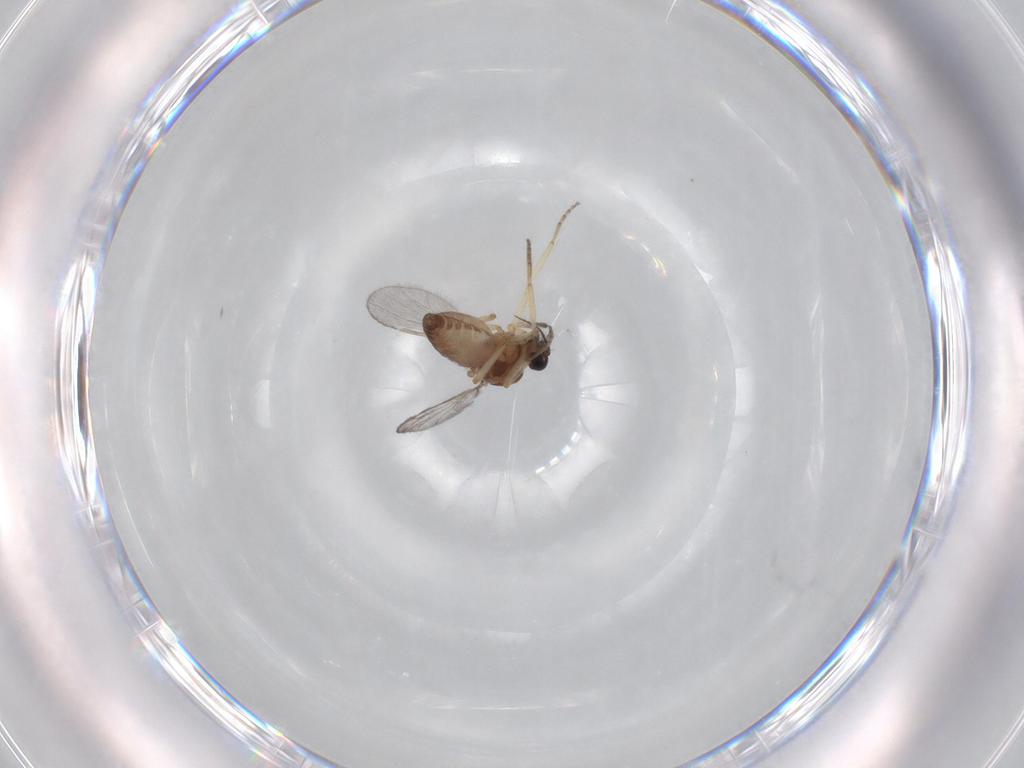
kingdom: Animalia
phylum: Arthropoda
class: Insecta
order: Diptera
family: Ceratopogonidae
